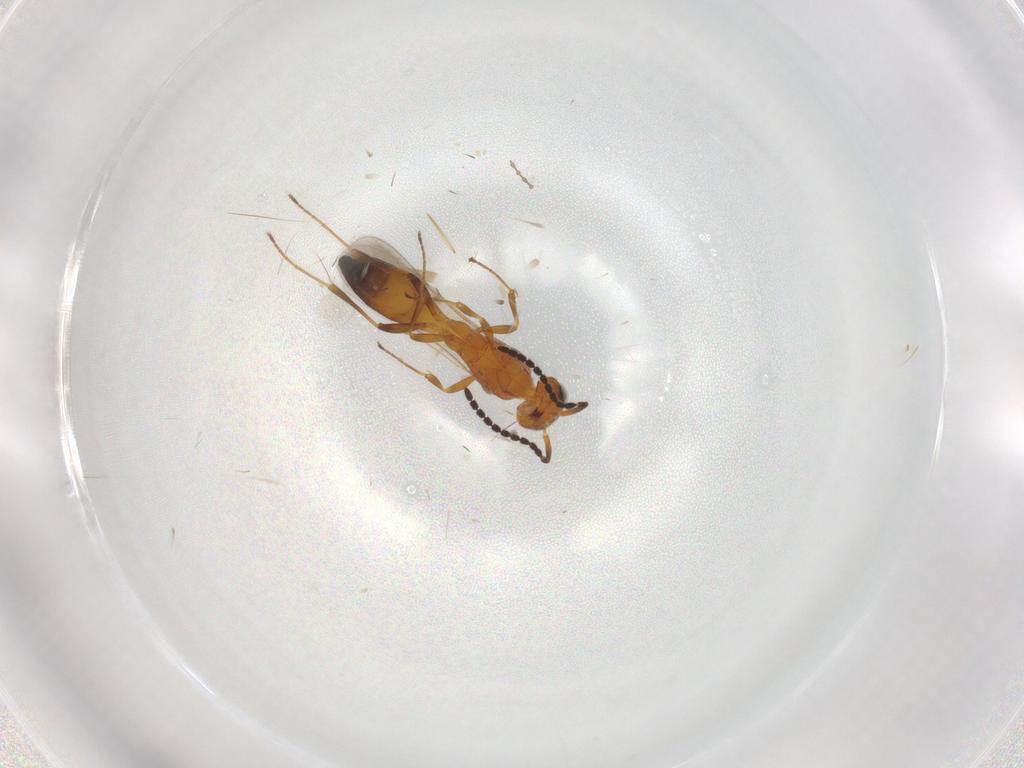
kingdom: Animalia
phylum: Arthropoda
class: Insecta
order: Hymenoptera
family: Scelionidae
